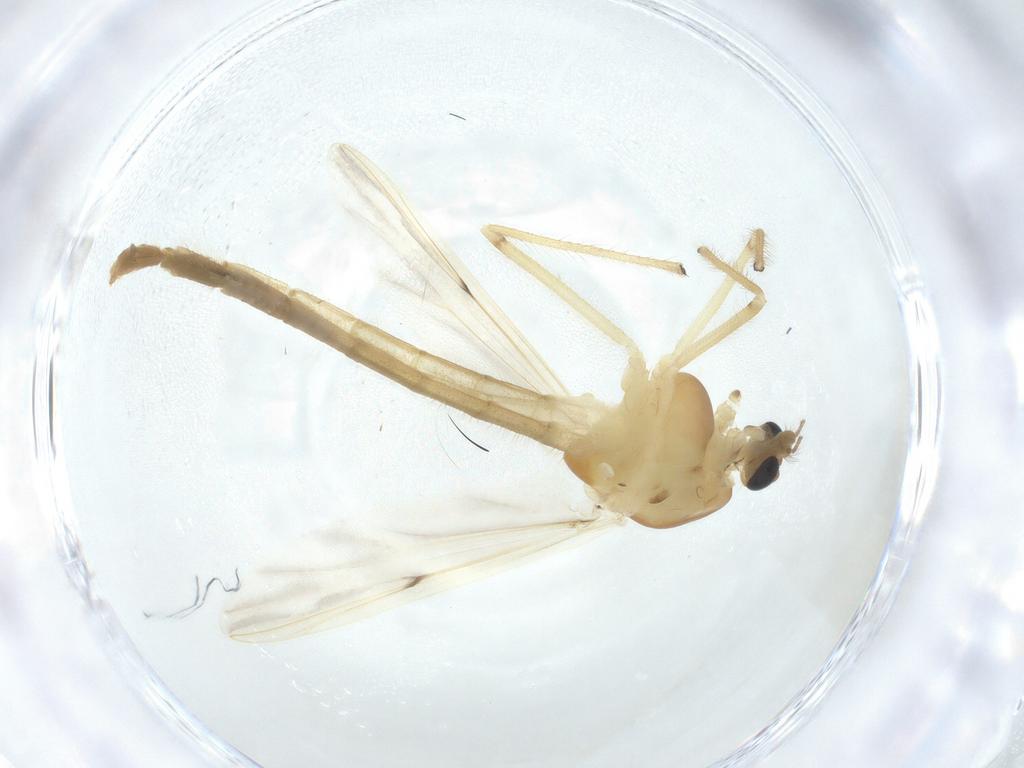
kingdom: Animalia
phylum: Arthropoda
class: Insecta
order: Diptera
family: Chironomidae
